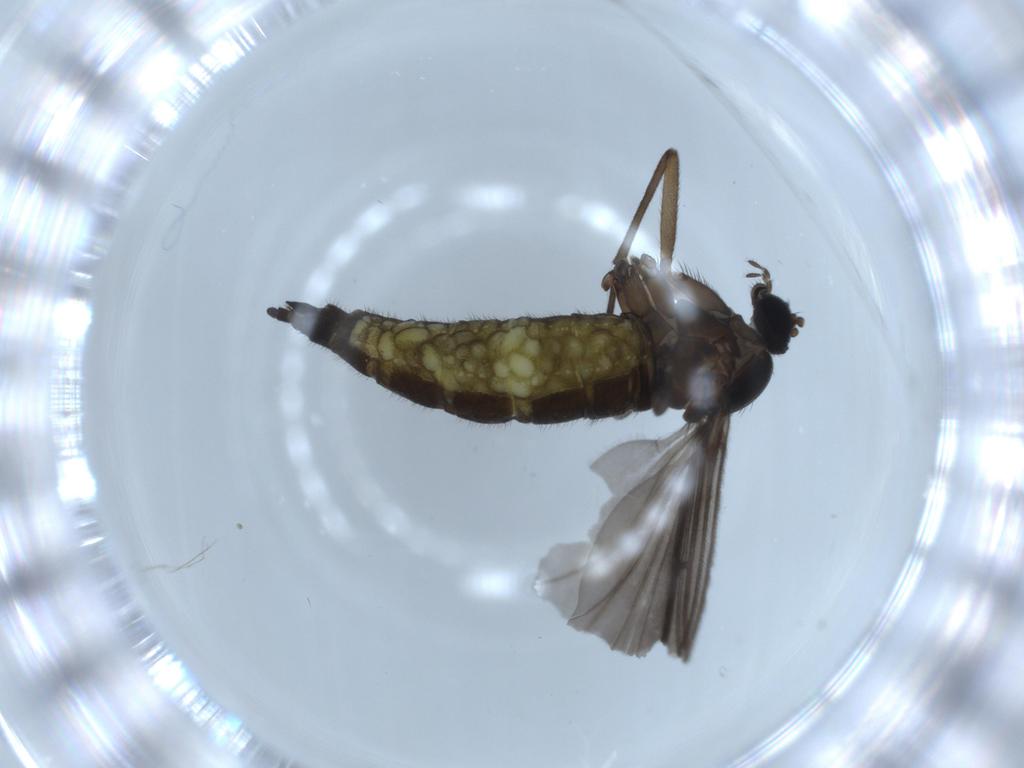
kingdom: Animalia
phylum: Arthropoda
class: Insecta
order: Diptera
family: Sciaridae
